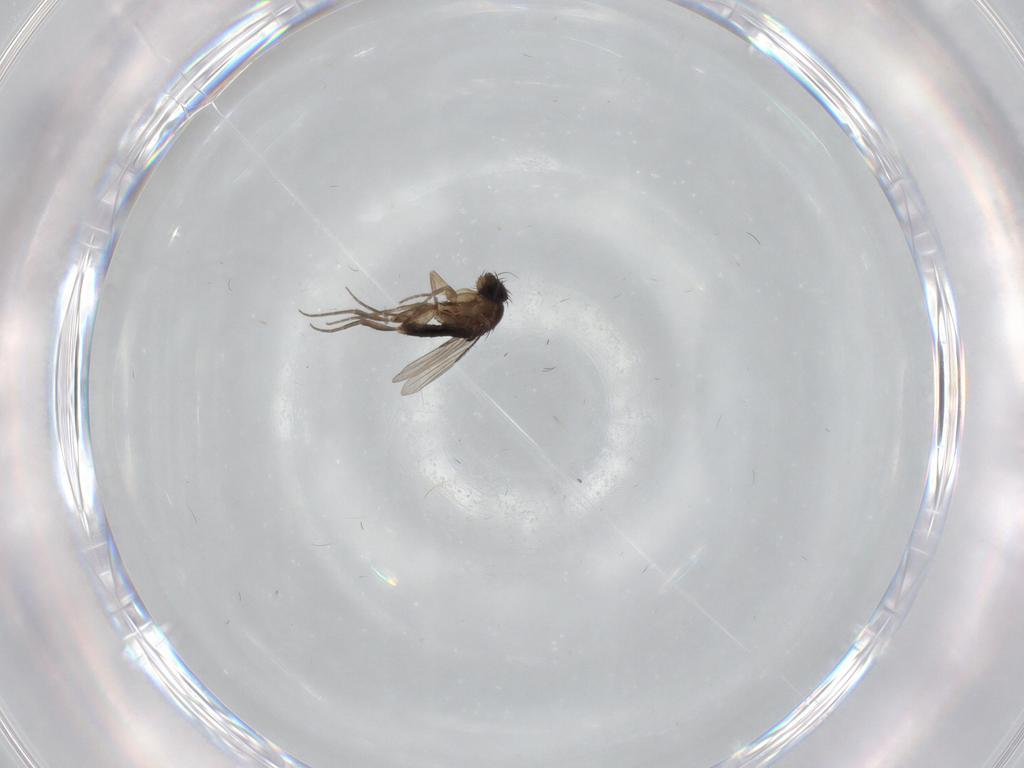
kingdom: Animalia
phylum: Arthropoda
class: Insecta
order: Diptera
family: Phoridae
